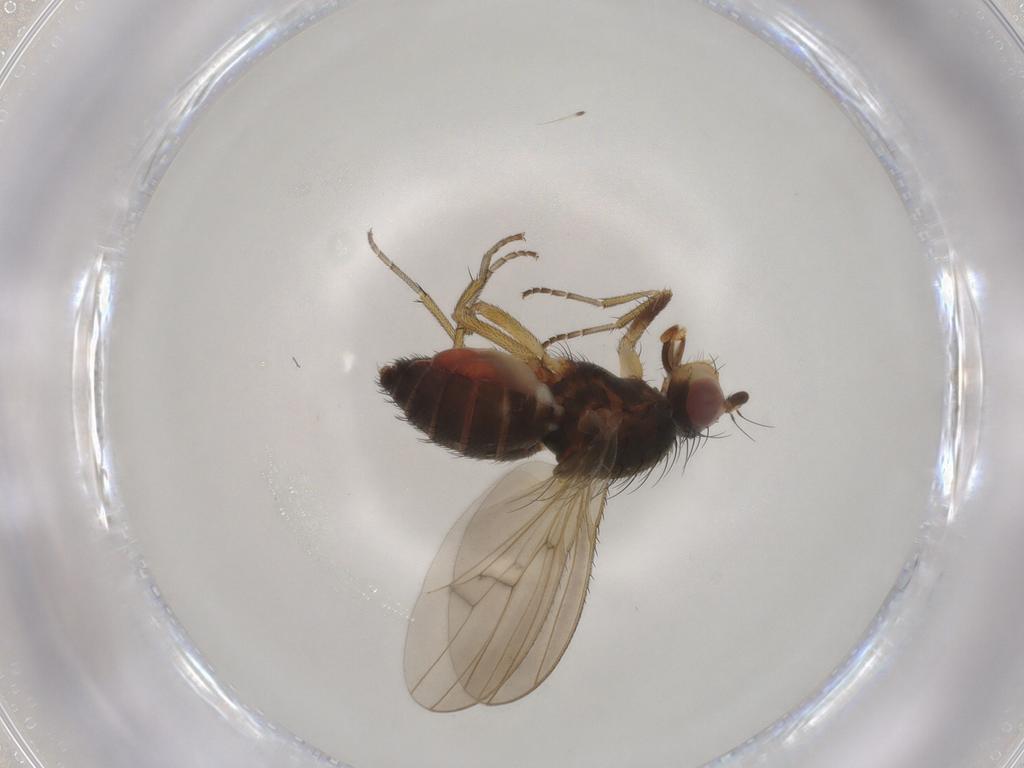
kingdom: Animalia
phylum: Arthropoda
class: Insecta
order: Diptera
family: Heleomyzidae
